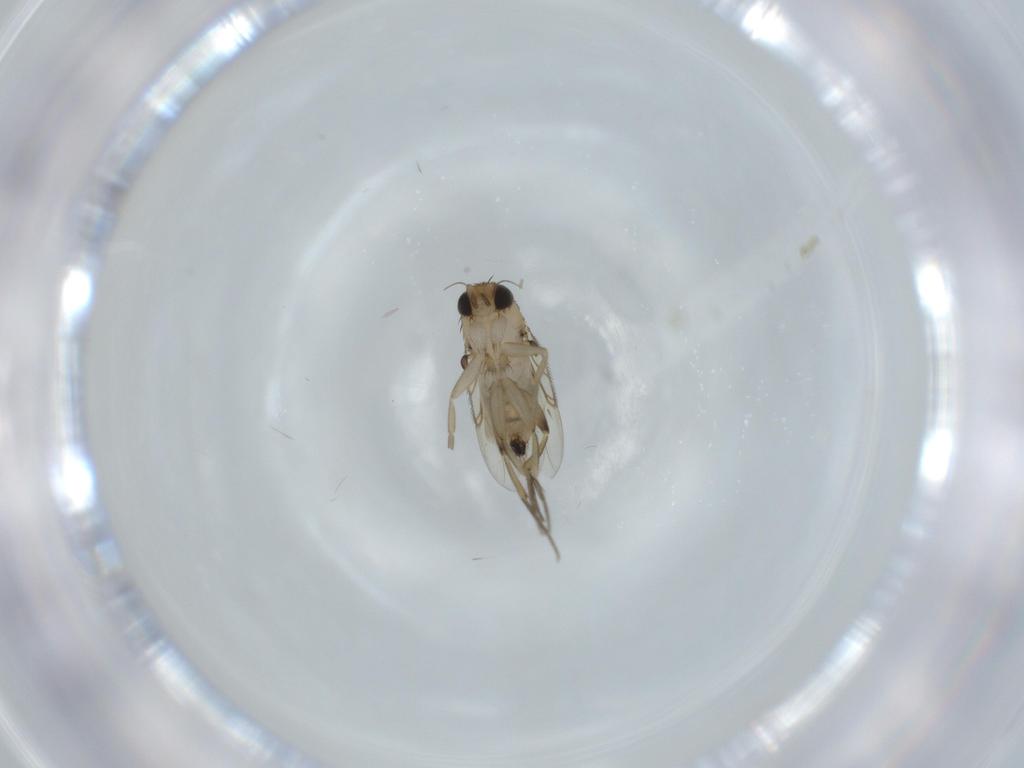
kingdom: Animalia
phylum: Arthropoda
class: Insecta
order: Diptera
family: Phoridae
